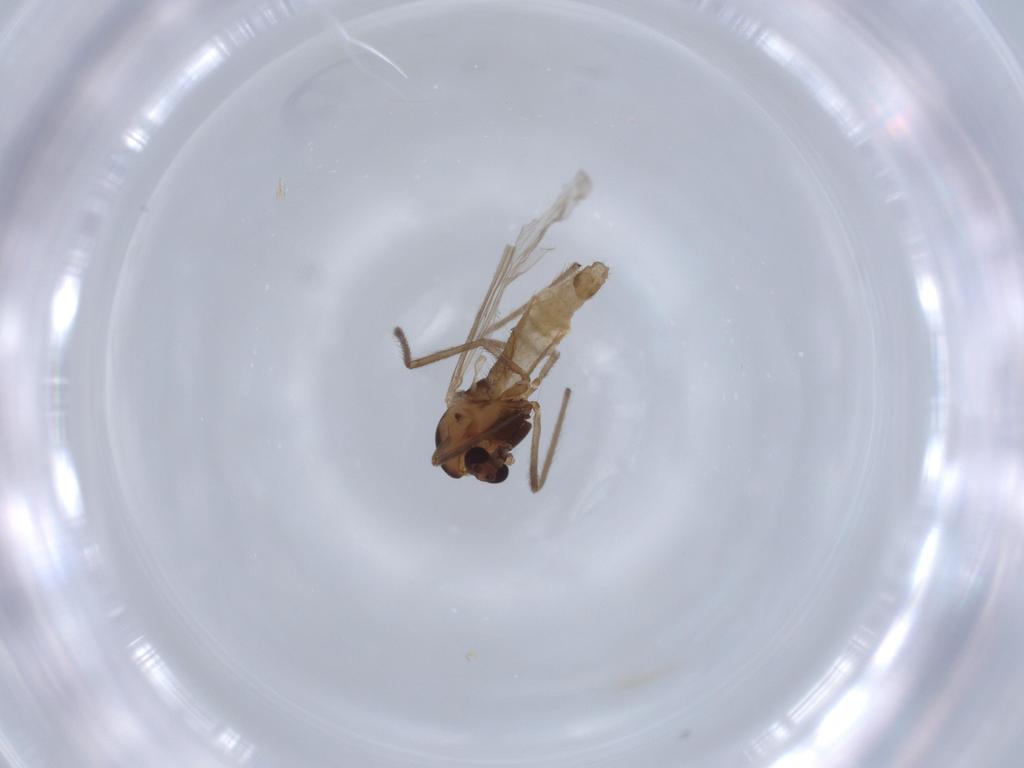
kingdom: Animalia
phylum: Arthropoda
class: Insecta
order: Diptera
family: Chironomidae
